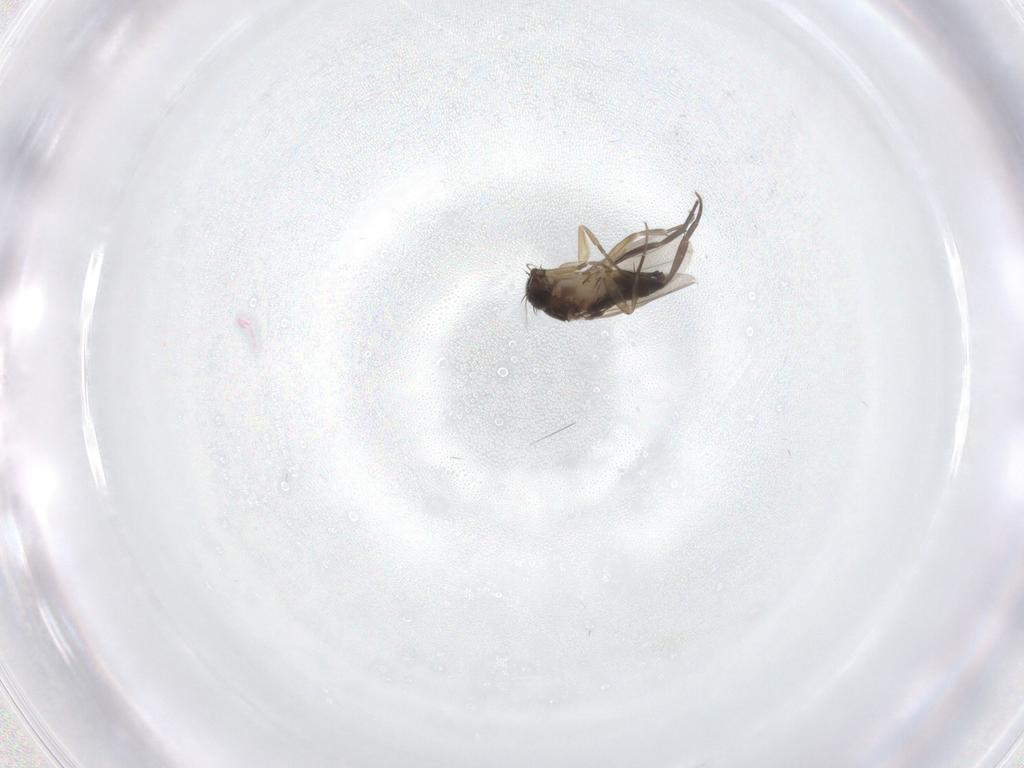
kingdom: Animalia
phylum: Arthropoda
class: Insecta
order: Diptera
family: Psychodidae
